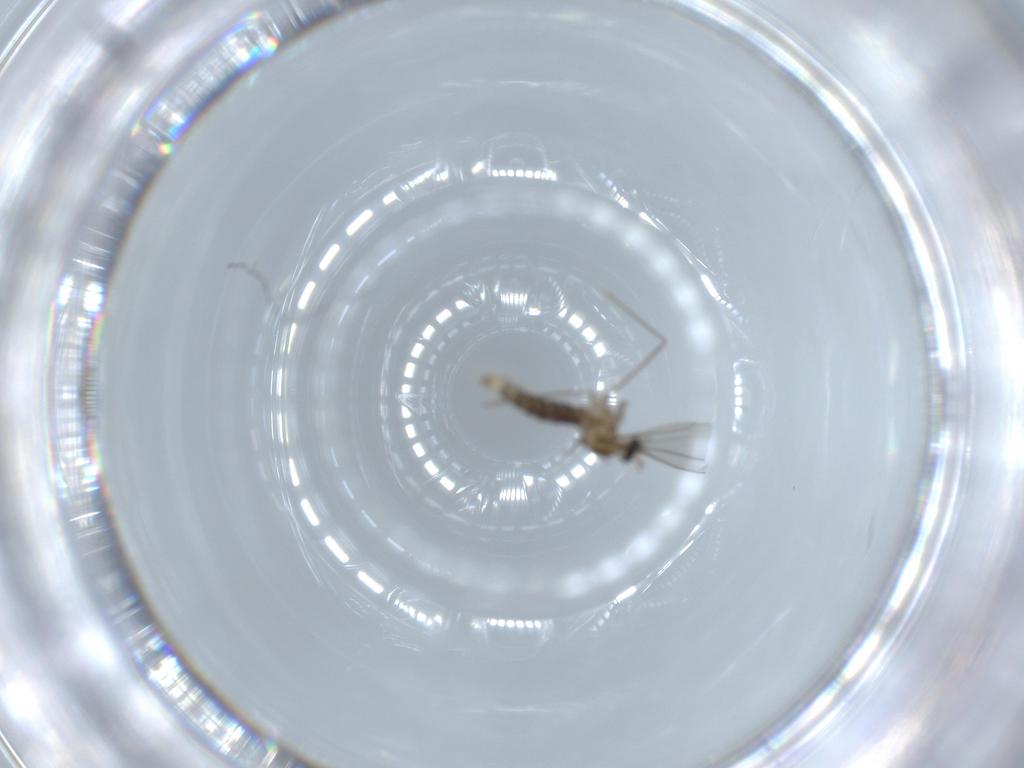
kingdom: Animalia
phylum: Arthropoda
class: Insecta
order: Diptera
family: Cecidomyiidae
